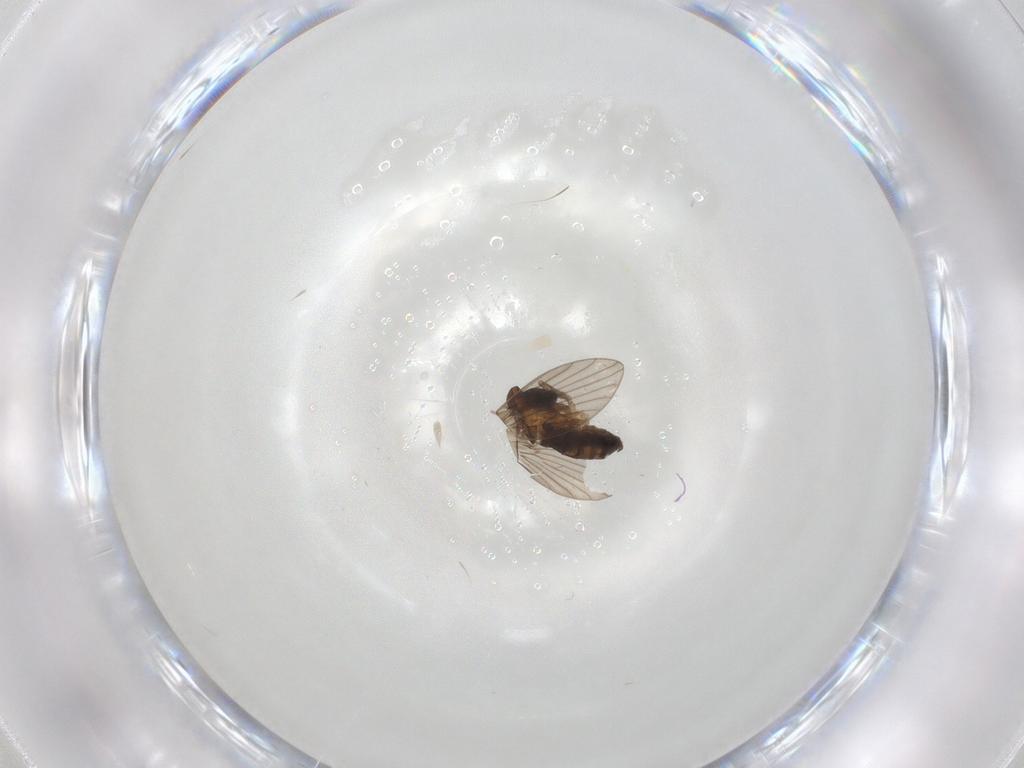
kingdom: Animalia
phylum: Arthropoda
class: Insecta
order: Diptera
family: Psychodidae
